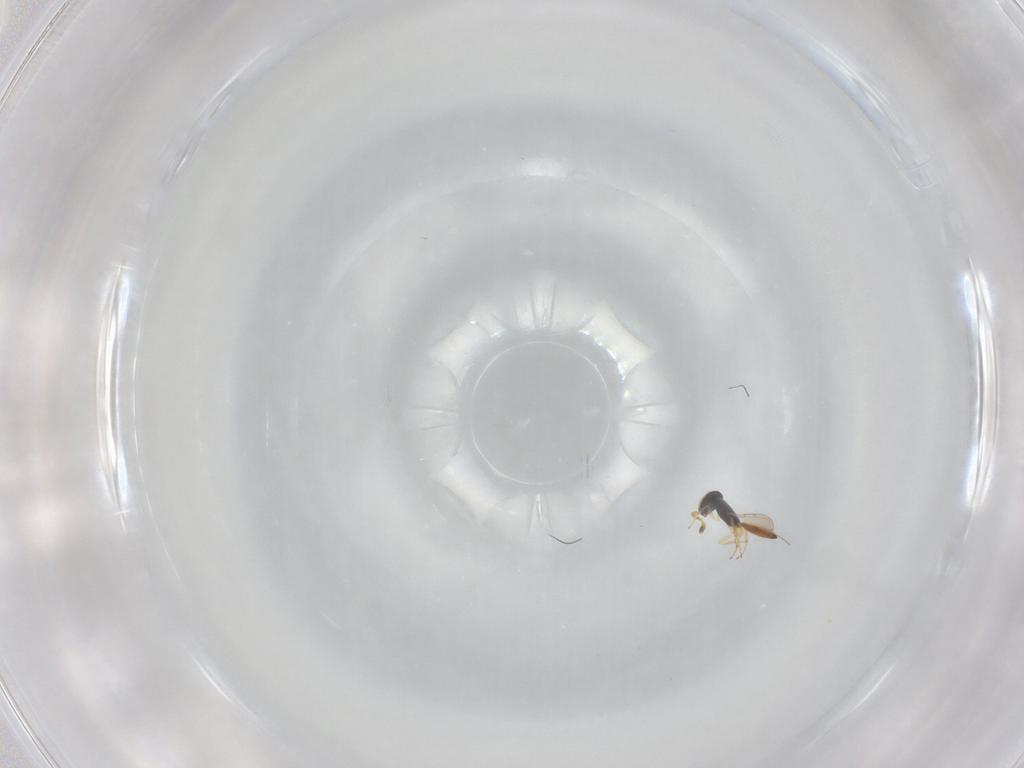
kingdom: Animalia
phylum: Arthropoda
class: Insecta
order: Hymenoptera
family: Scelionidae
